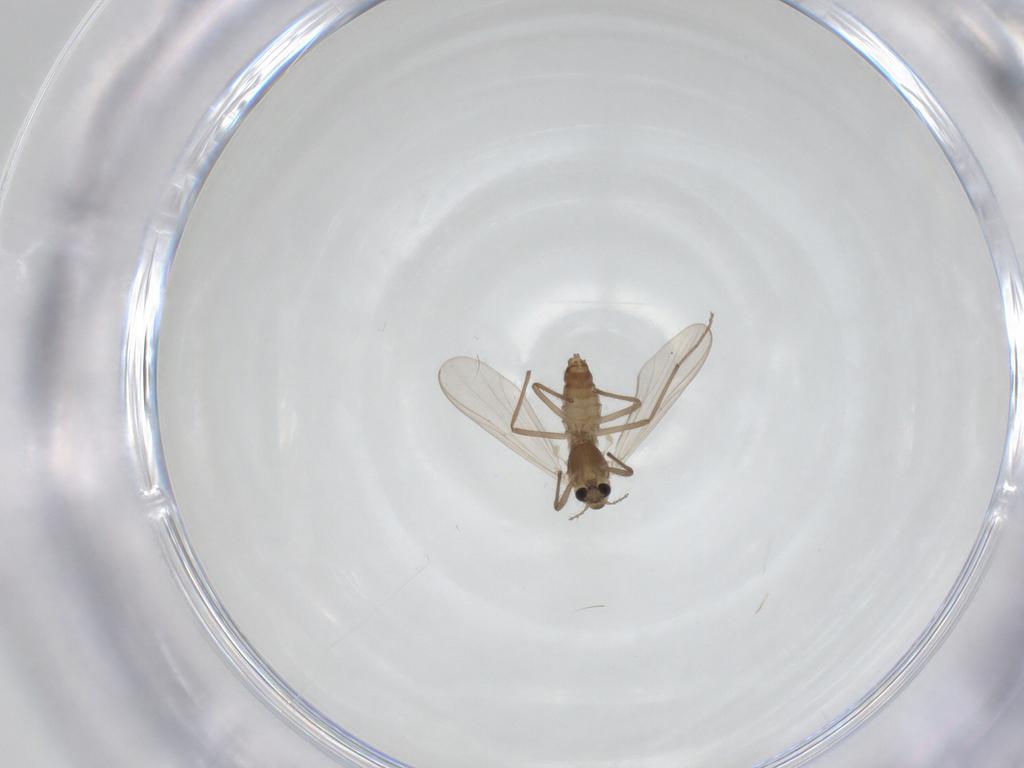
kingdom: Animalia
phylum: Arthropoda
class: Insecta
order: Diptera
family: Chironomidae
